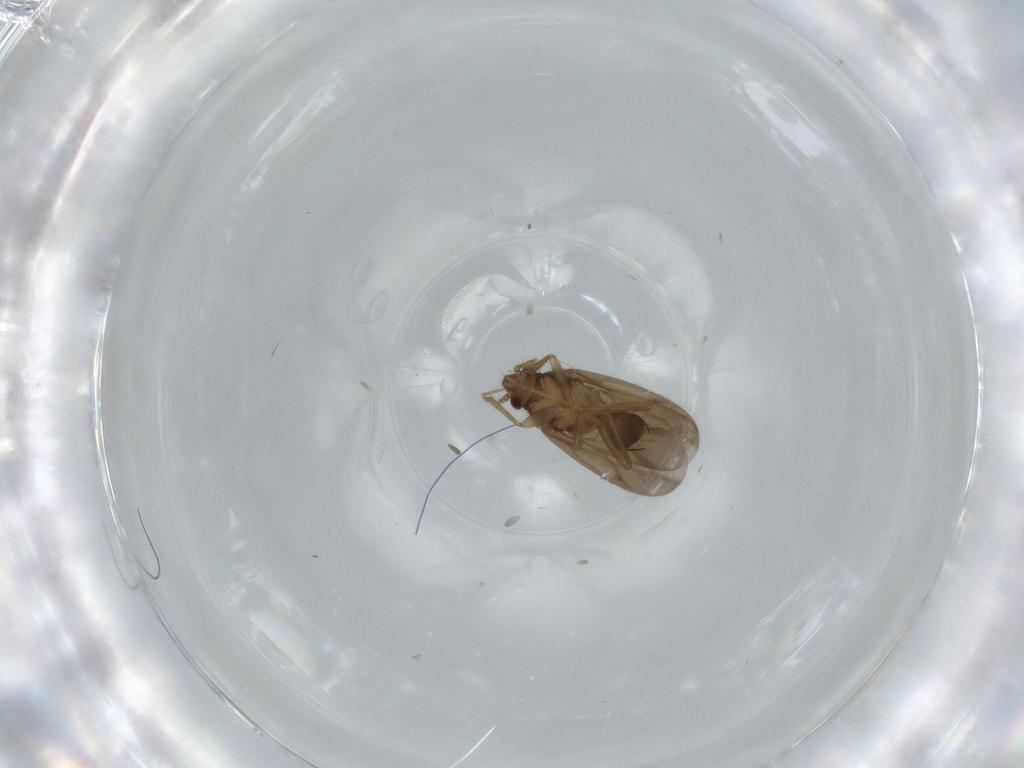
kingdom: Animalia
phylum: Arthropoda
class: Insecta
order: Hemiptera
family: Ceratocombidae
